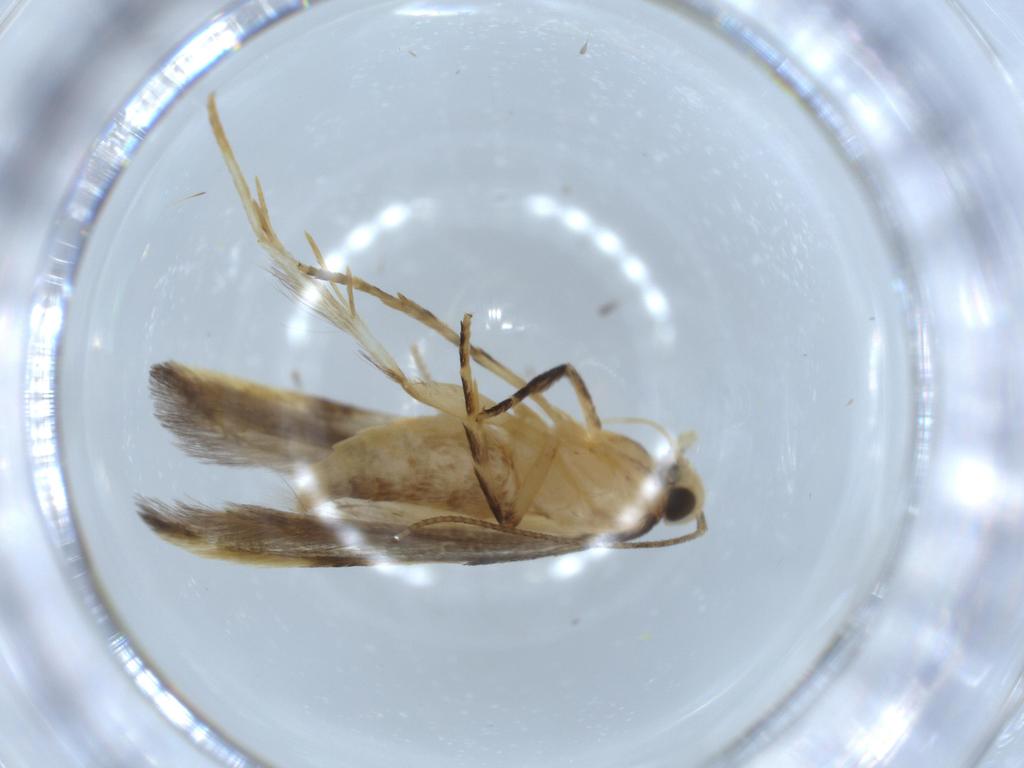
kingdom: Animalia
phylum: Arthropoda
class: Insecta
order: Lepidoptera
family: Autostichidae
